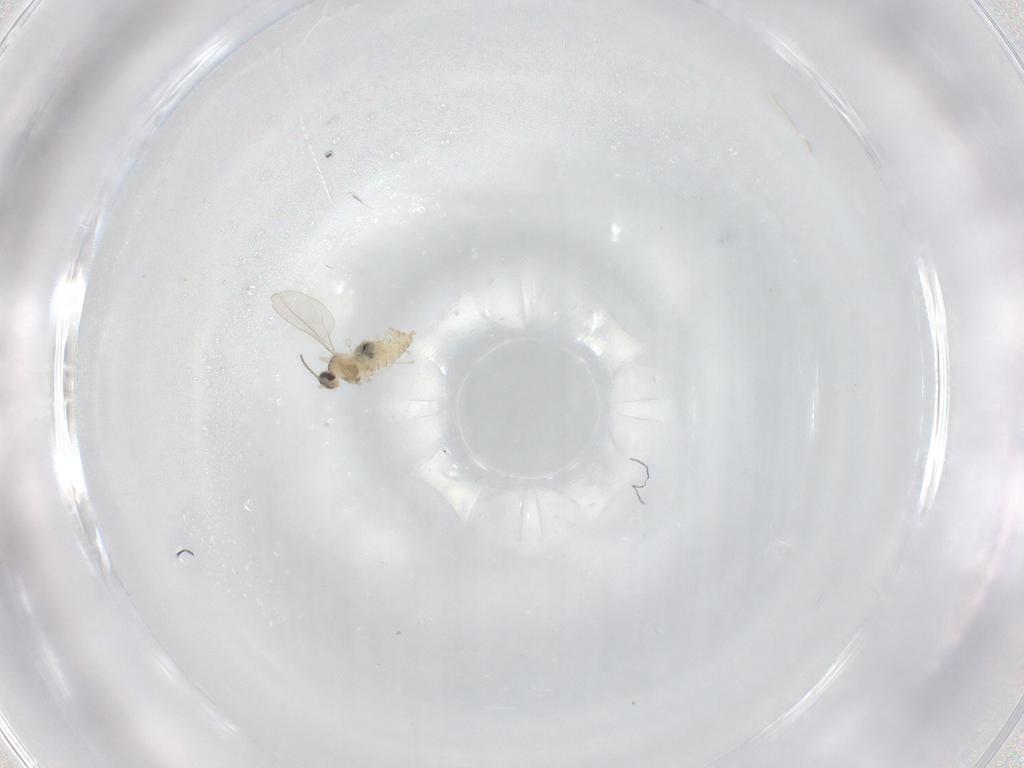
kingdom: Animalia
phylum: Arthropoda
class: Insecta
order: Diptera
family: Cecidomyiidae
